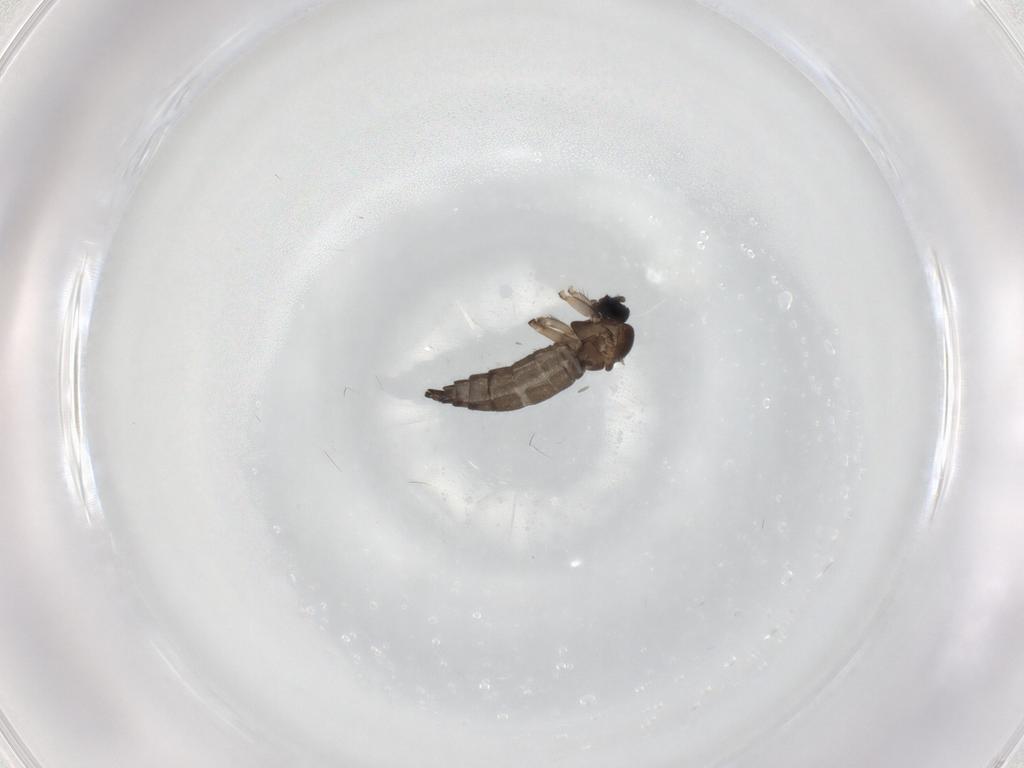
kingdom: Animalia
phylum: Arthropoda
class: Insecta
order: Diptera
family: Sciaridae
